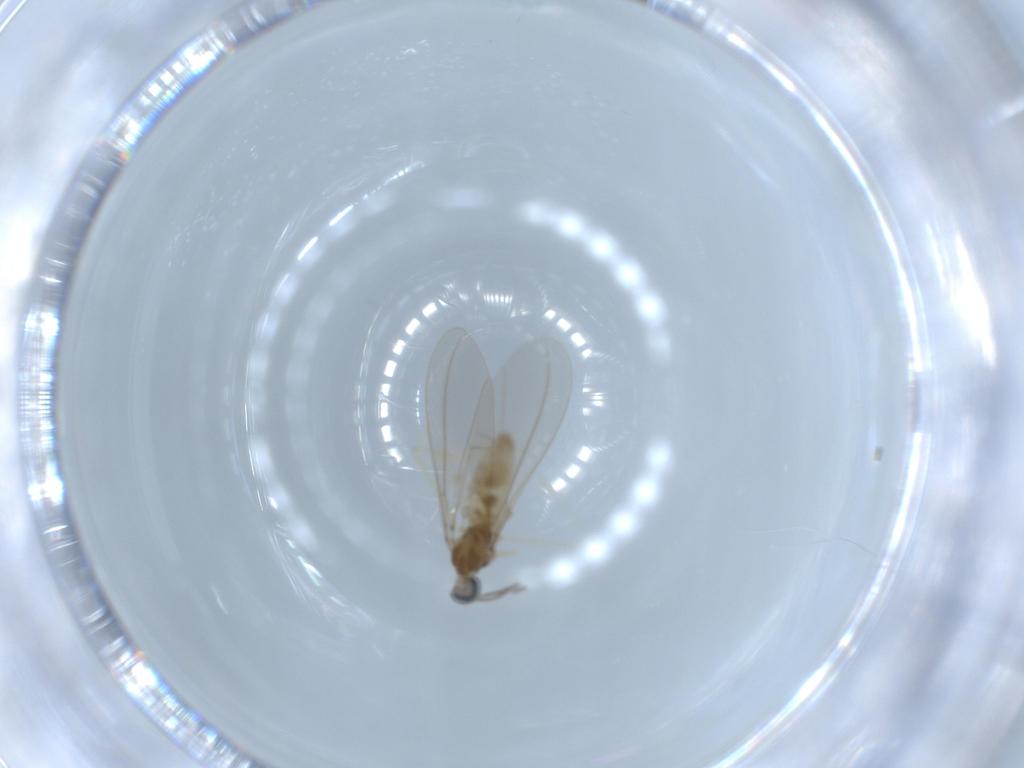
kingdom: Animalia
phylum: Arthropoda
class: Insecta
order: Diptera
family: Cecidomyiidae
